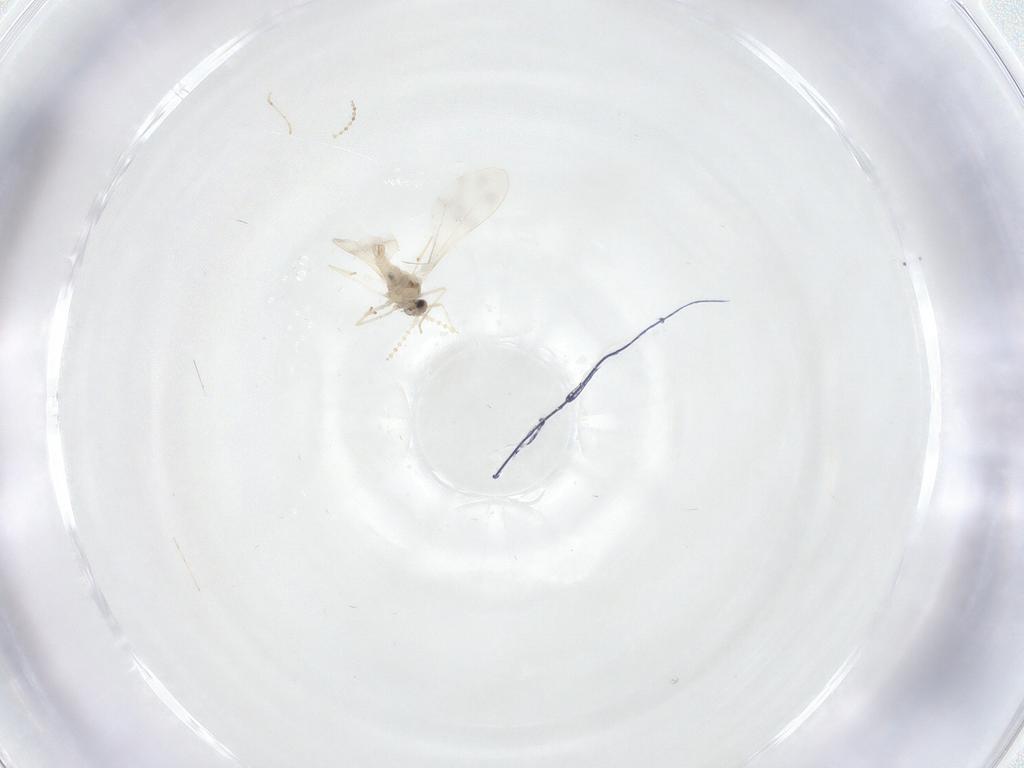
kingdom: Animalia
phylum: Arthropoda
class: Insecta
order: Diptera
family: Cecidomyiidae
